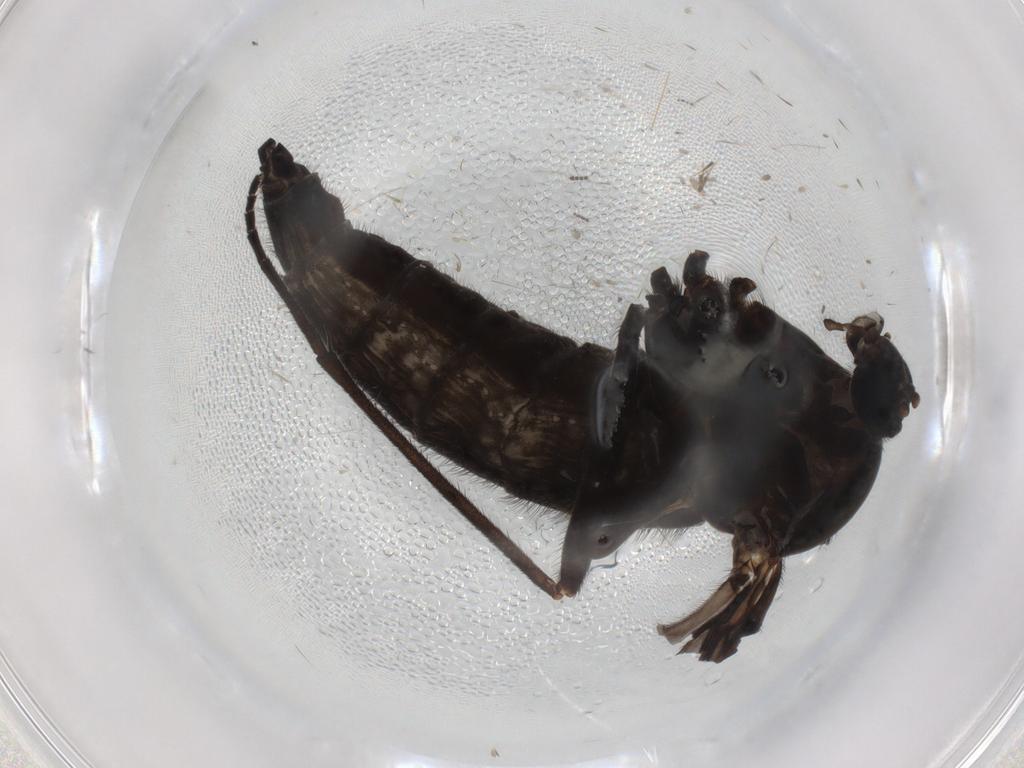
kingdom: Animalia
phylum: Arthropoda
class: Insecta
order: Diptera
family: Sciaridae
